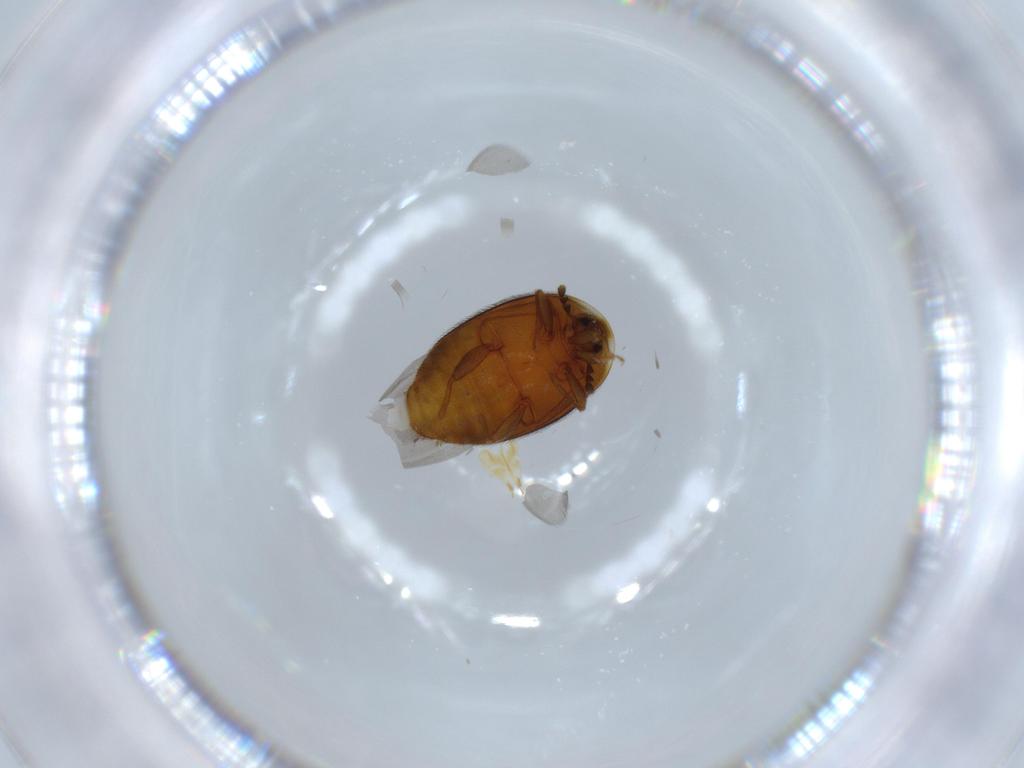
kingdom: Animalia
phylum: Arthropoda
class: Insecta
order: Coleoptera
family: Corylophidae
